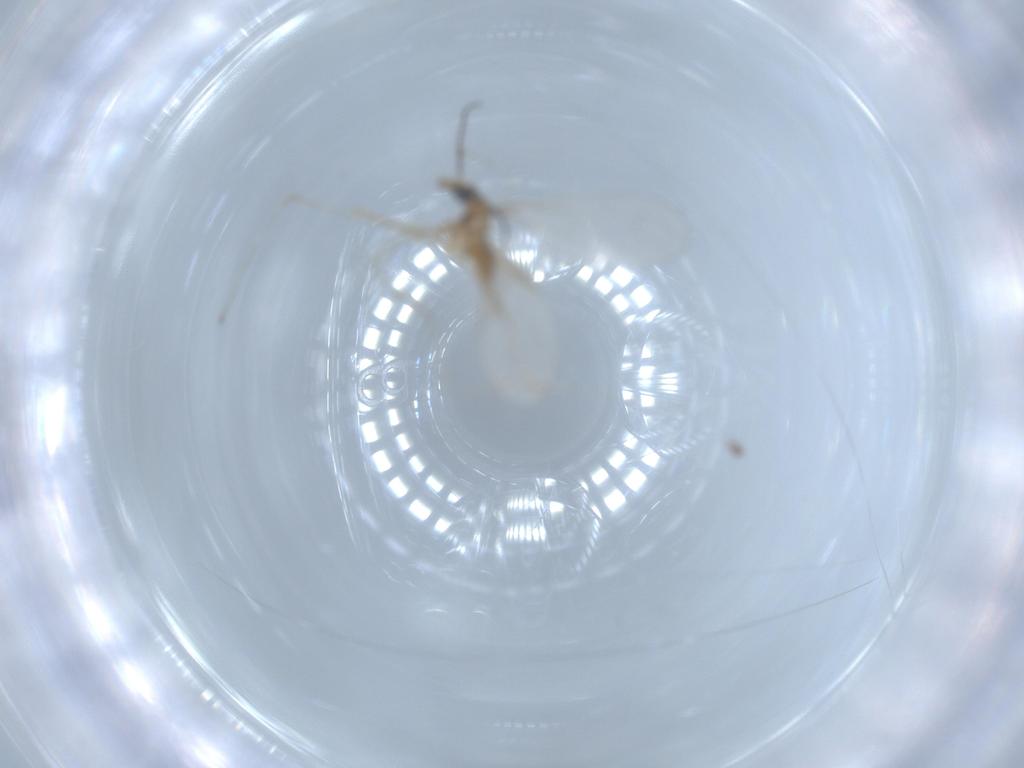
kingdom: Animalia
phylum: Arthropoda
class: Insecta
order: Diptera
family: Cecidomyiidae
